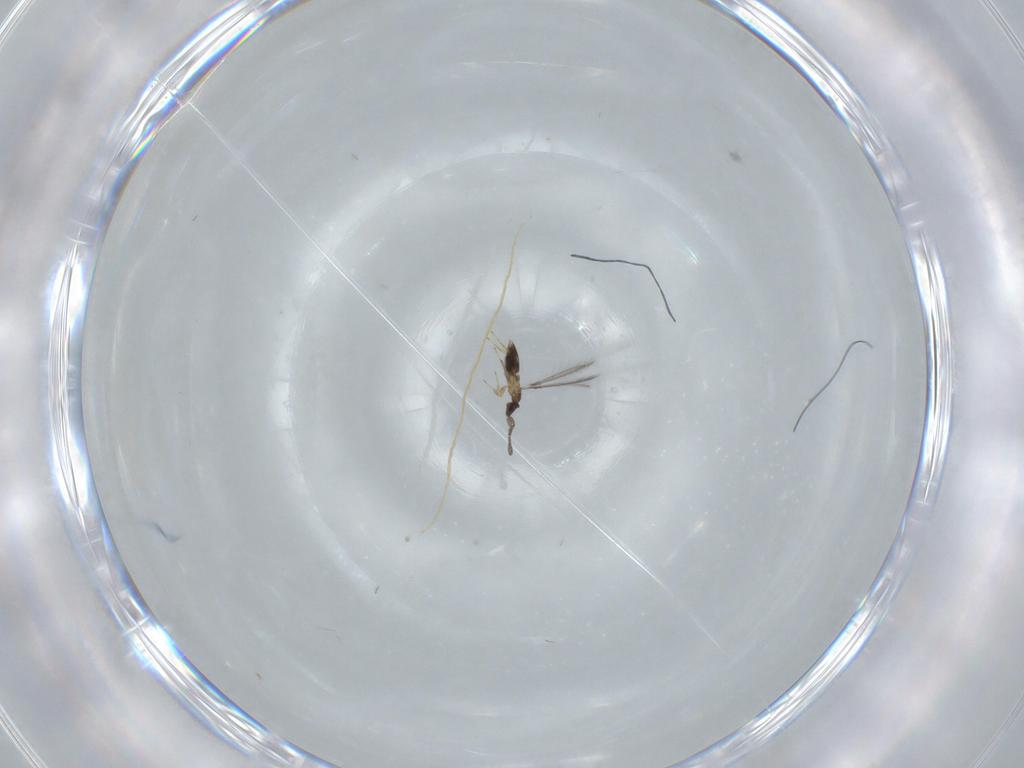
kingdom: Animalia
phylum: Arthropoda
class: Insecta
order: Hymenoptera
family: Mymaridae
